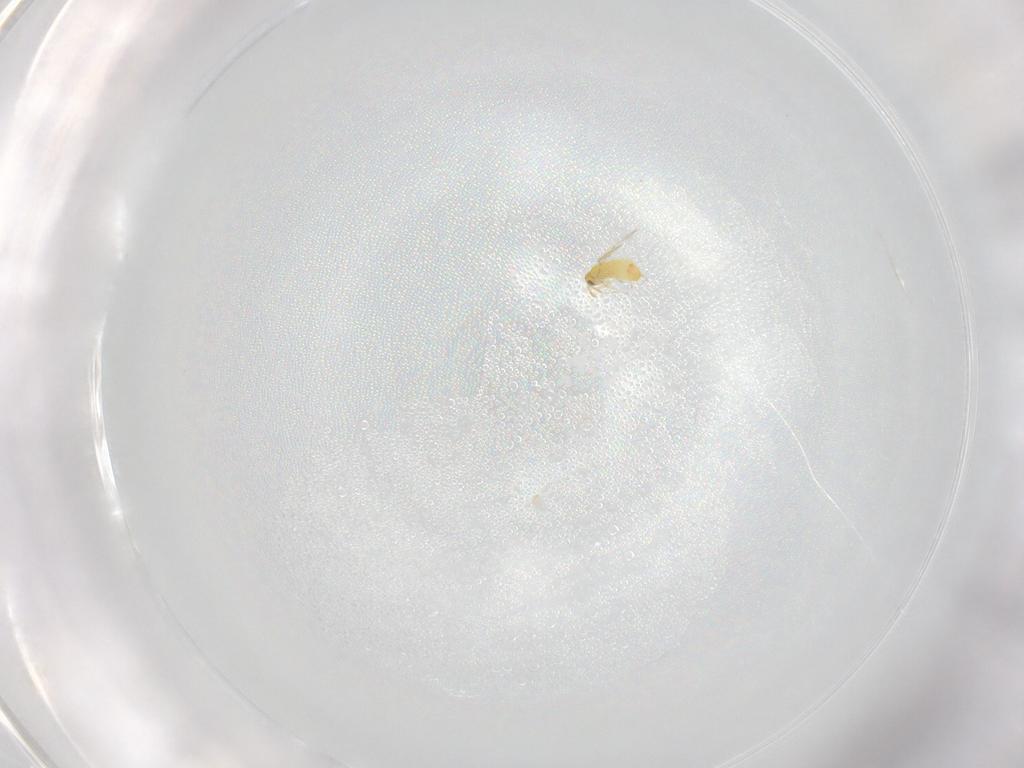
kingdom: Animalia
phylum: Arthropoda
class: Insecta
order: Hymenoptera
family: Trichogrammatidae
